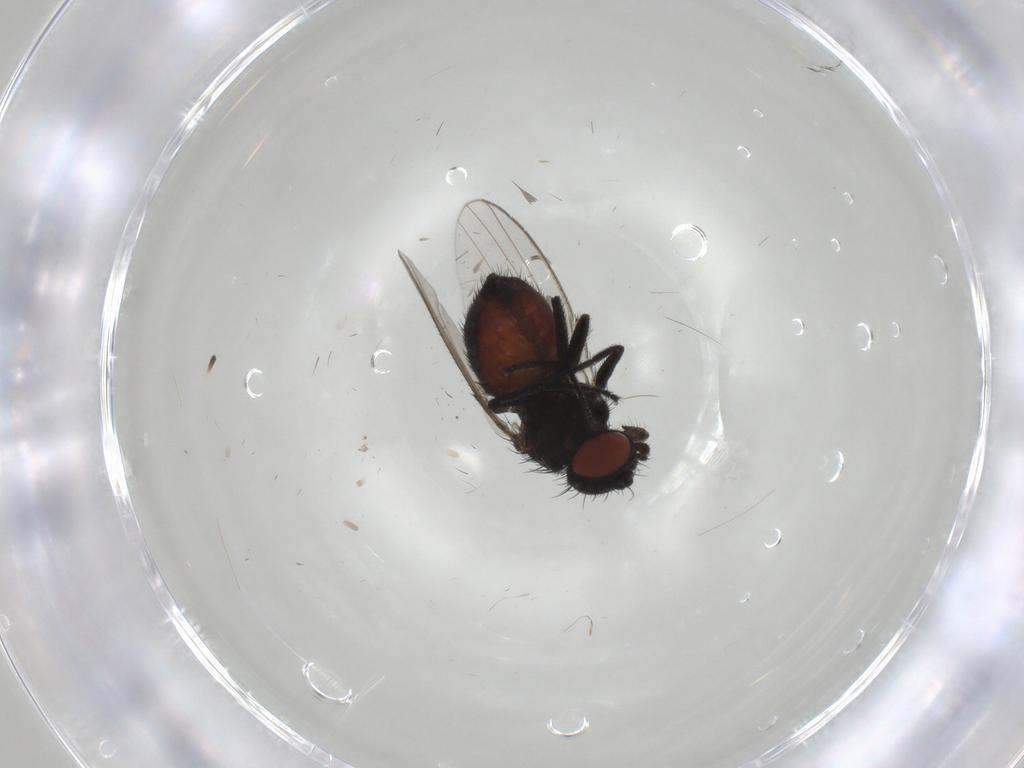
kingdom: Animalia
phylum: Arthropoda
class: Insecta
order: Diptera
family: Milichiidae
